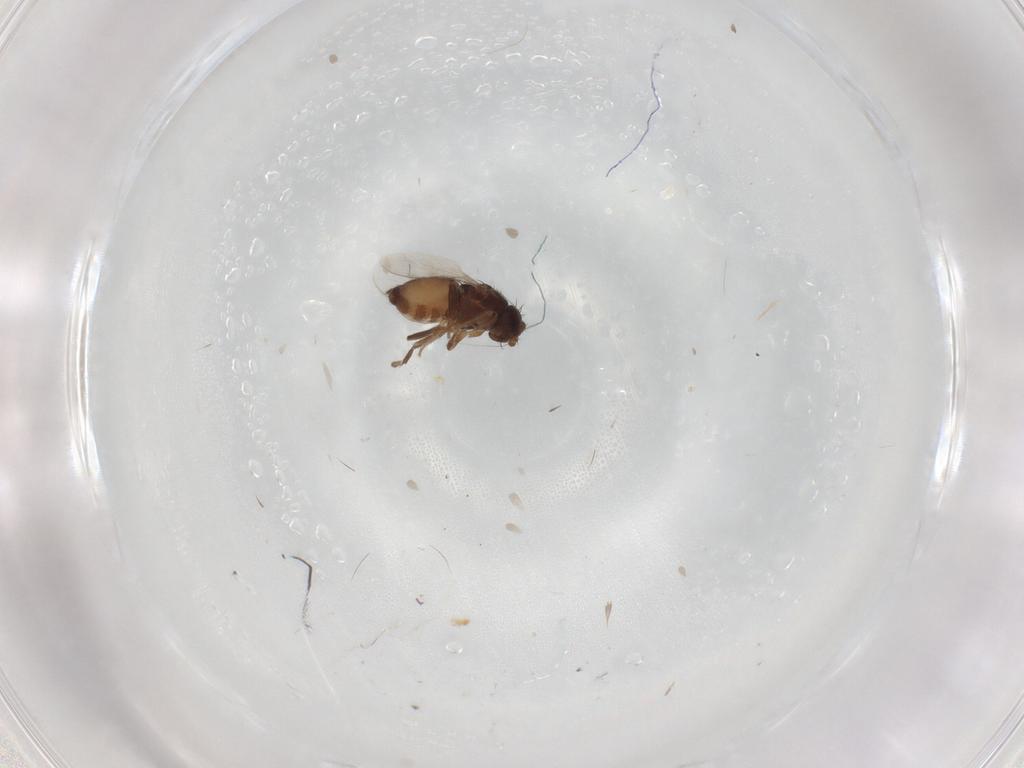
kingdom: Animalia
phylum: Arthropoda
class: Insecta
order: Diptera
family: Sphaeroceridae
